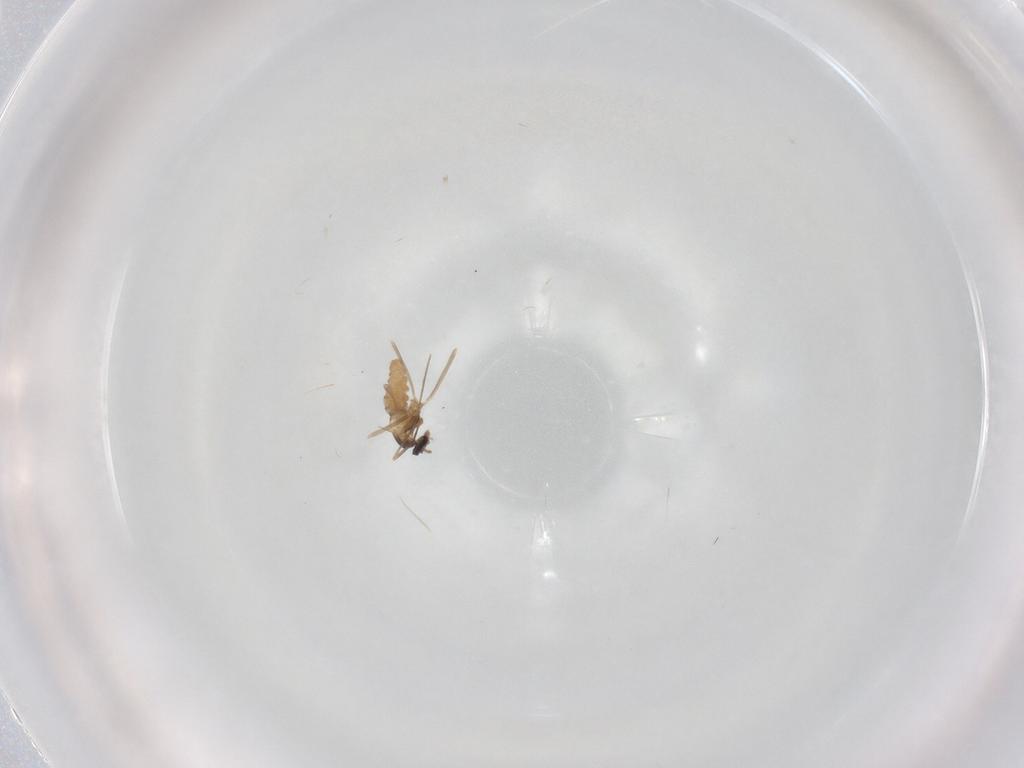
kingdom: Animalia
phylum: Arthropoda
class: Insecta
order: Diptera
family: Cecidomyiidae
